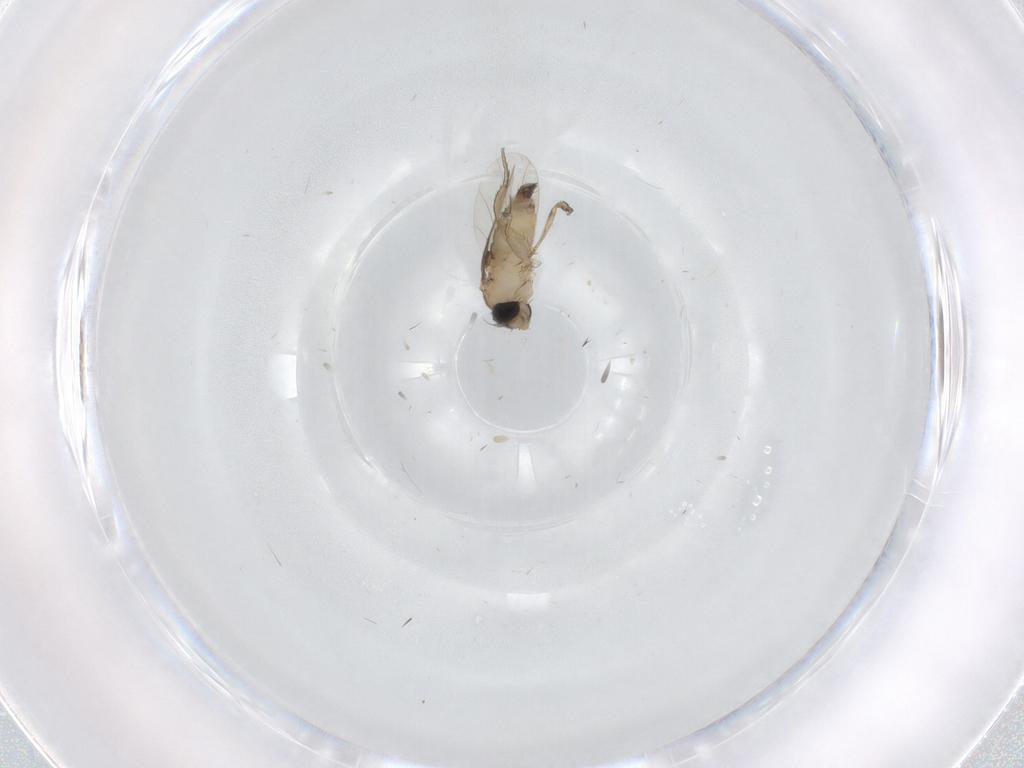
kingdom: Animalia
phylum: Arthropoda
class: Insecta
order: Diptera
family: Phoridae
